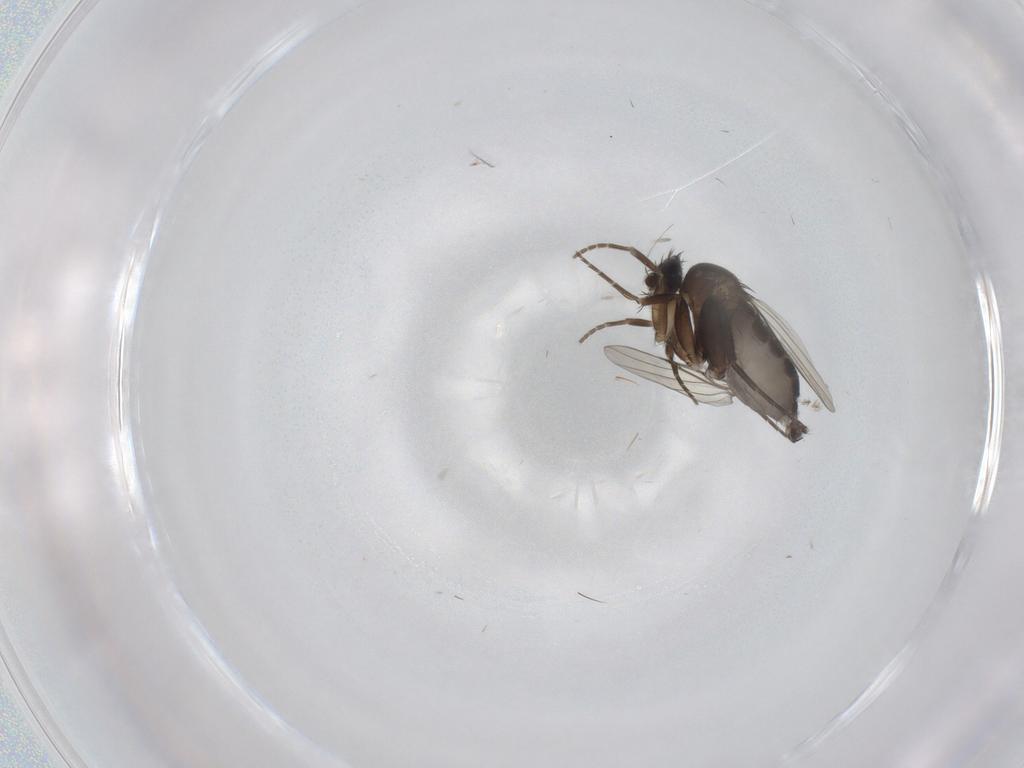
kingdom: Animalia
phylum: Arthropoda
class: Insecta
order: Diptera
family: Phoridae
